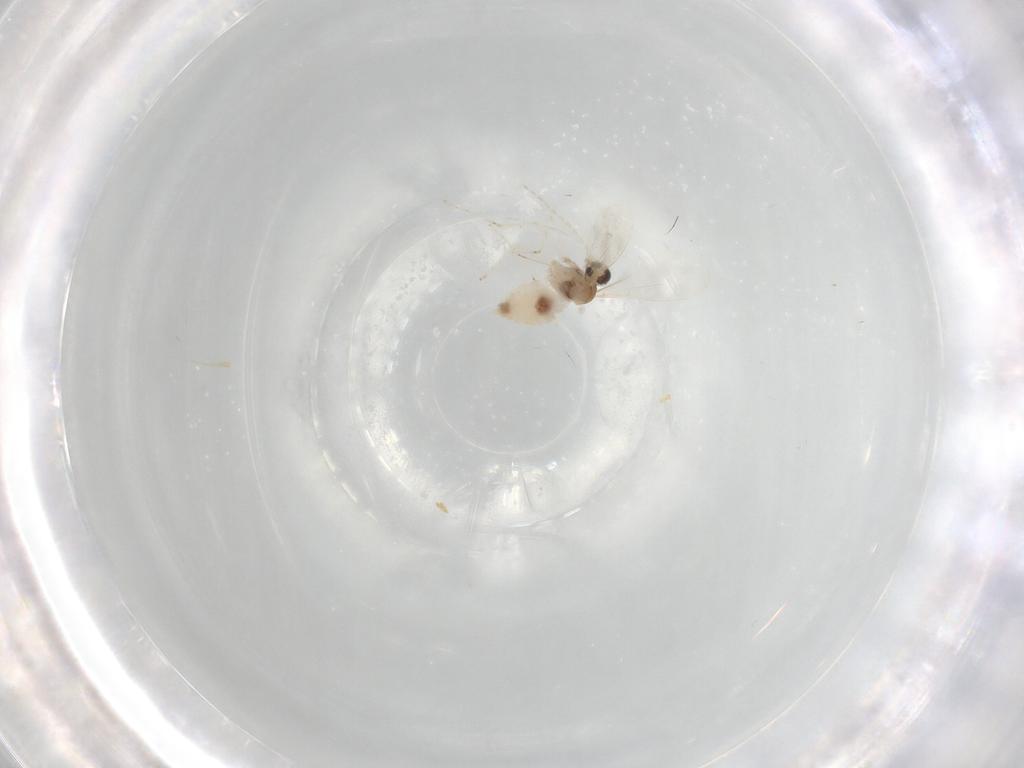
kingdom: Animalia
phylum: Arthropoda
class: Insecta
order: Diptera
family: Cecidomyiidae
